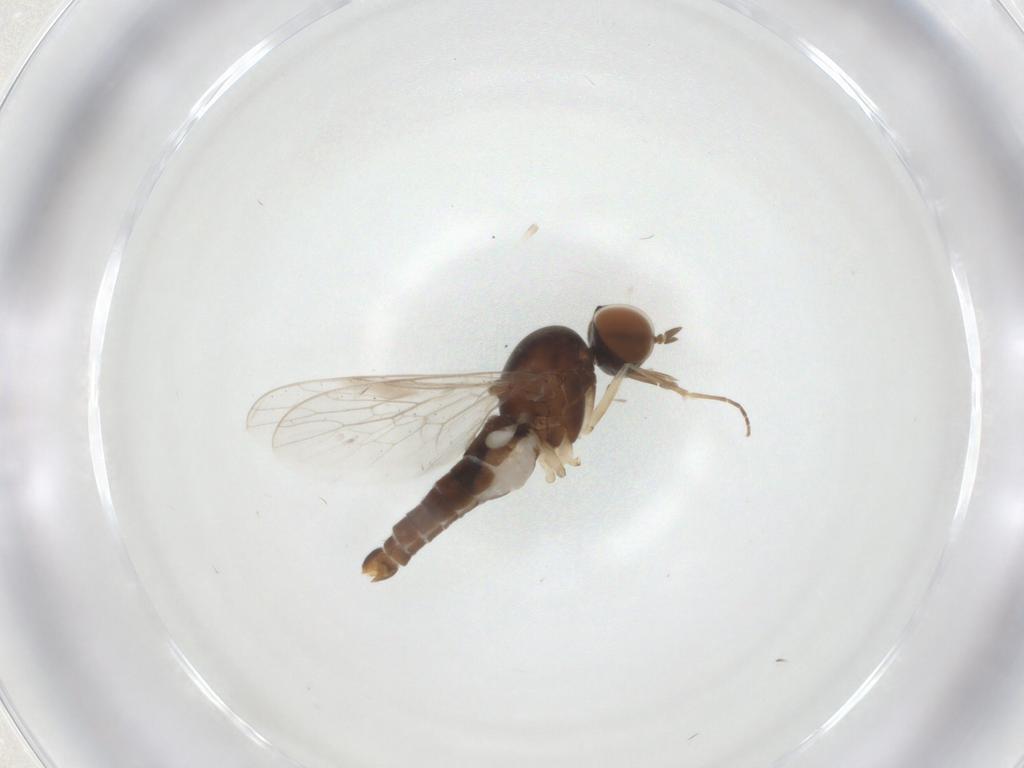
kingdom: Animalia
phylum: Arthropoda
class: Insecta
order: Diptera
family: Scenopinidae
